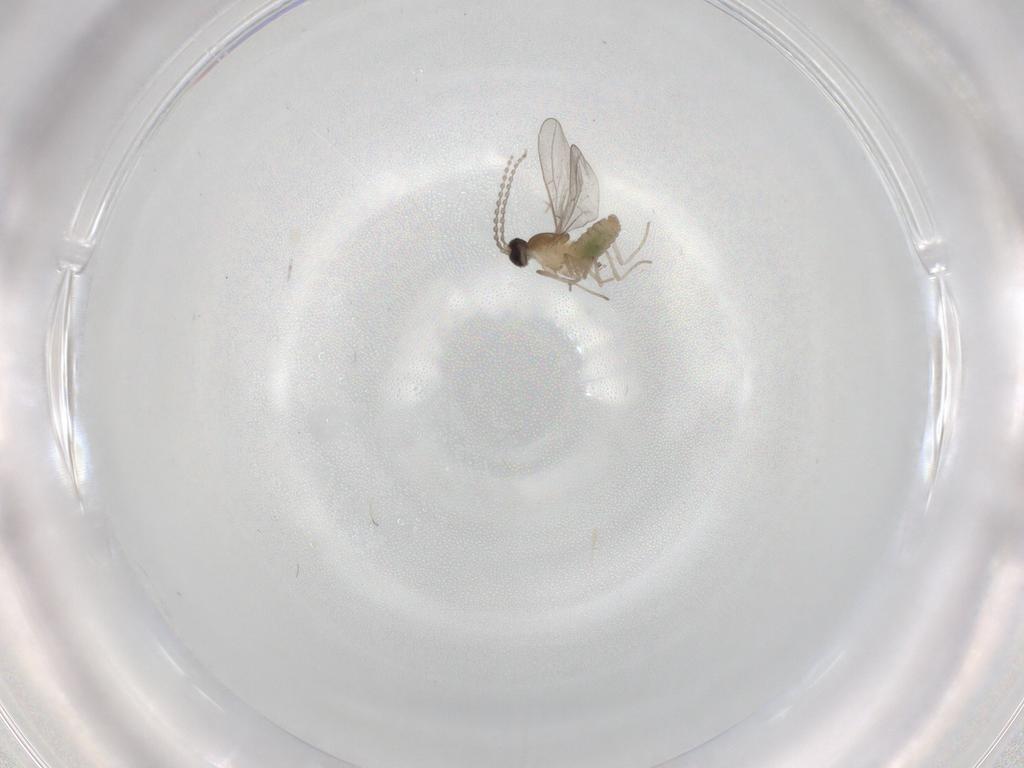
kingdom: Animalia
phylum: Arthropoda
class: Insecta
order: Diptera
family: Cecidomyiidae
